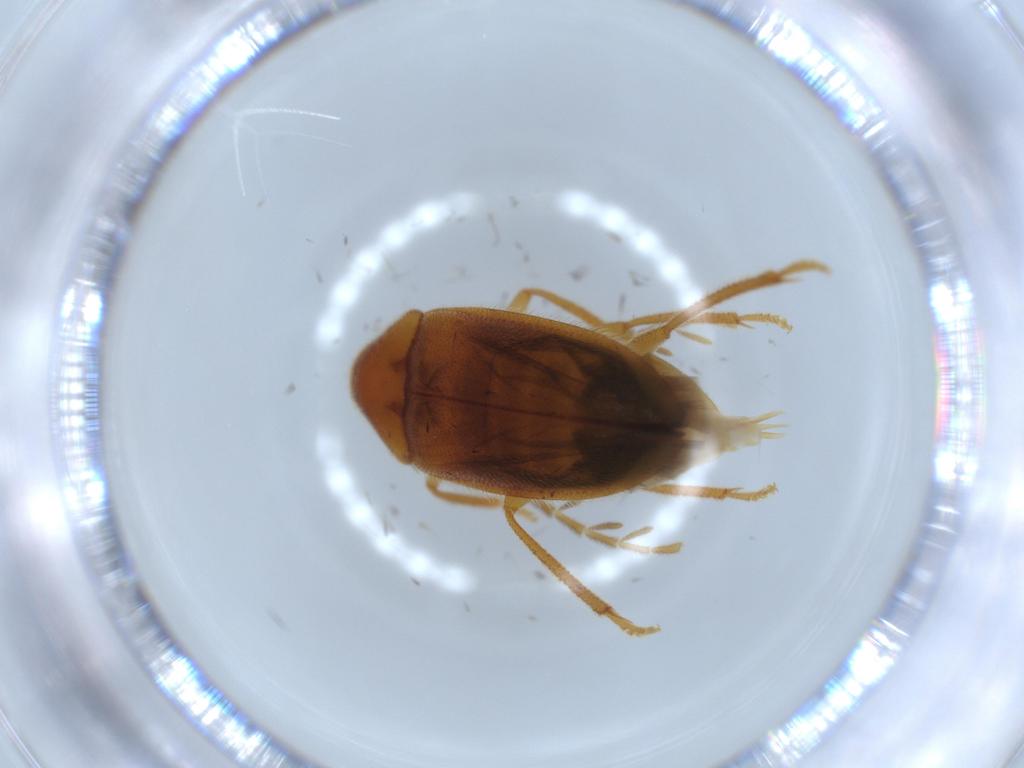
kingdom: Animalia
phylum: Arthropoda
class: Insecta
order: Coleoptera
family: Ptilodactylidae
